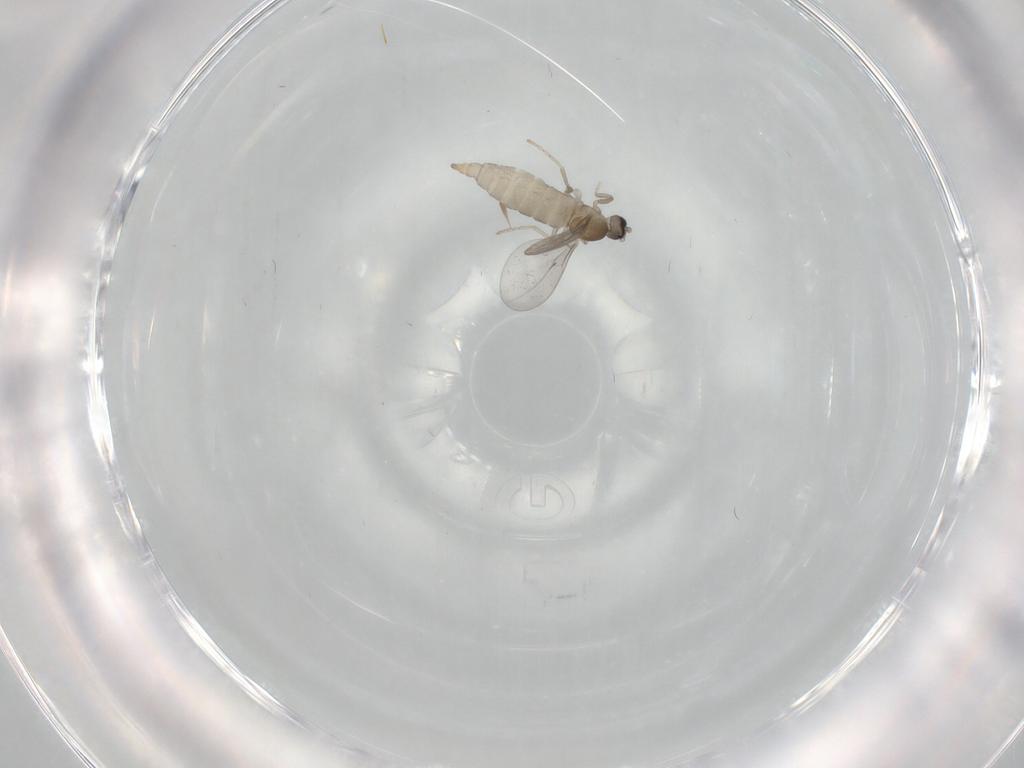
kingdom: Animalia
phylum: Arthropoda
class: Insecta
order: Diptera
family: Cecidomyiidae
